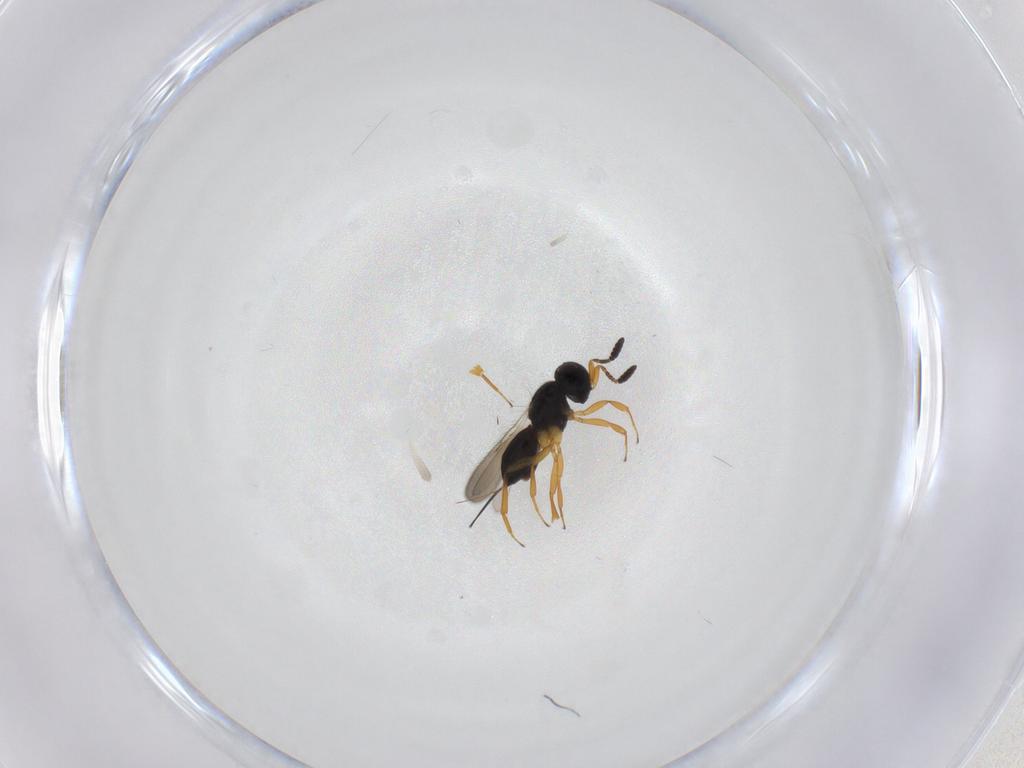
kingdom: Animalia
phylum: Arthropoda
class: Insecta
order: Hymenoptera
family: Scelionidae
